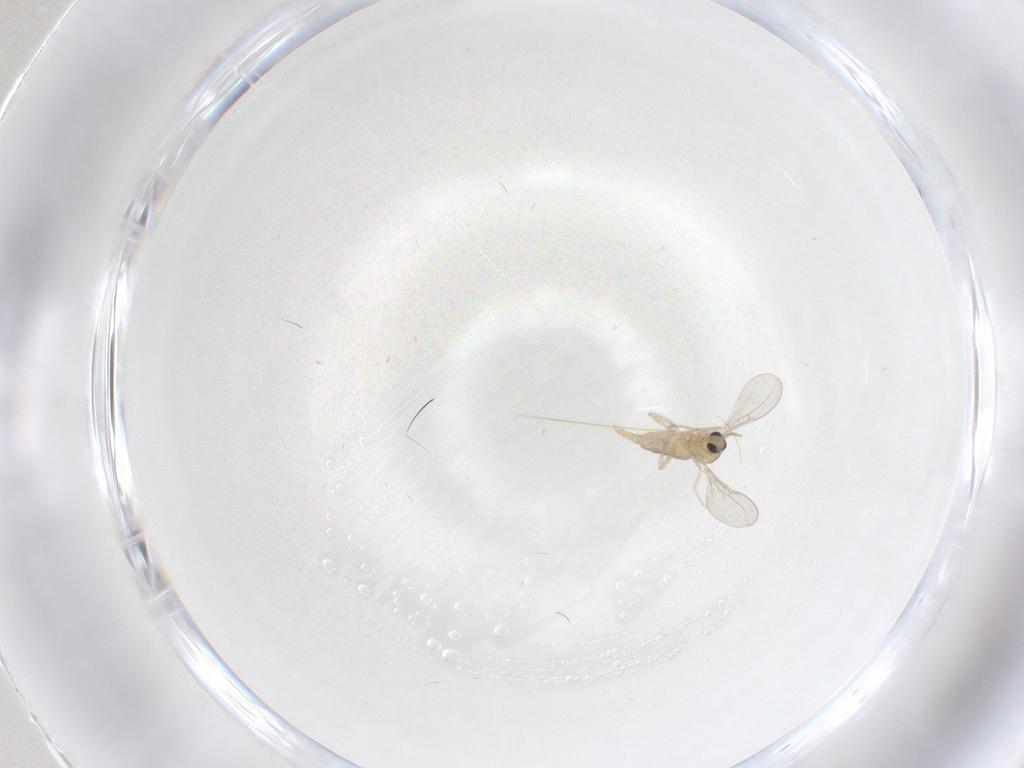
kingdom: Animalia
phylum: Arthropoda
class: Insecta
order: Diptera
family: Cecidomyiidae
